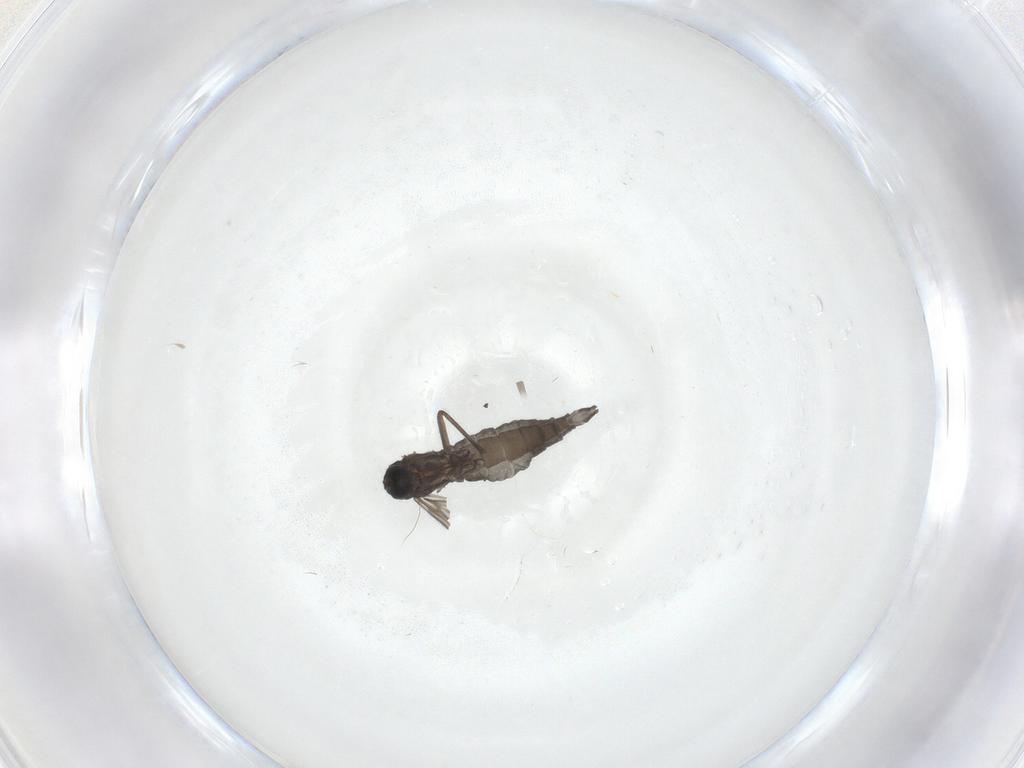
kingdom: Animalia
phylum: Arthropoda
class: Insecta
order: Diptera
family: Sciaridae
